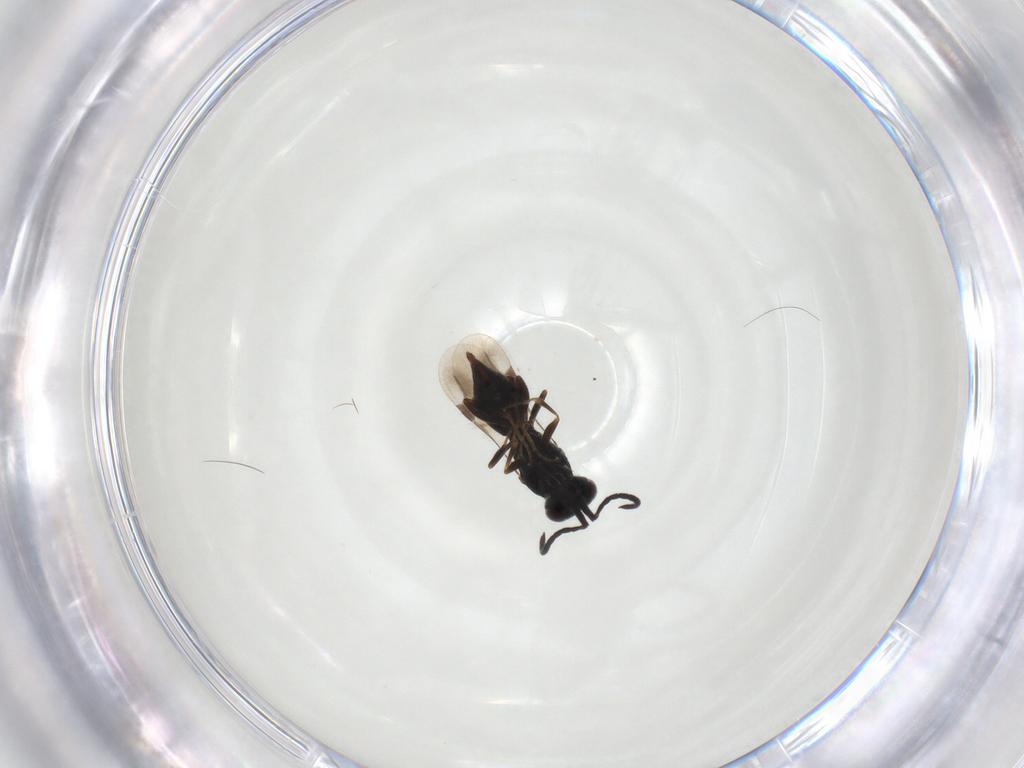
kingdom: Animalia
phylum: Arthropoda
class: Insecta
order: Hymenoptera
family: Megaspilidae
